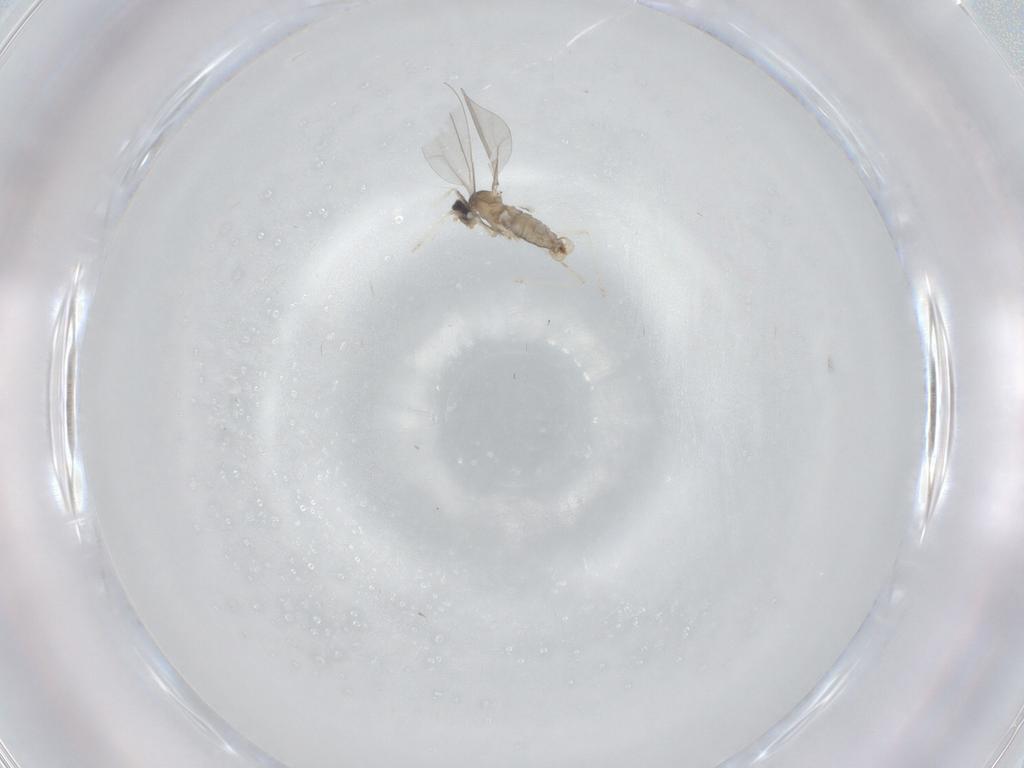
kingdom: Animalia
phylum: Arthropoda
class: Insecta
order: Diptera
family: Cecidomyiidae
